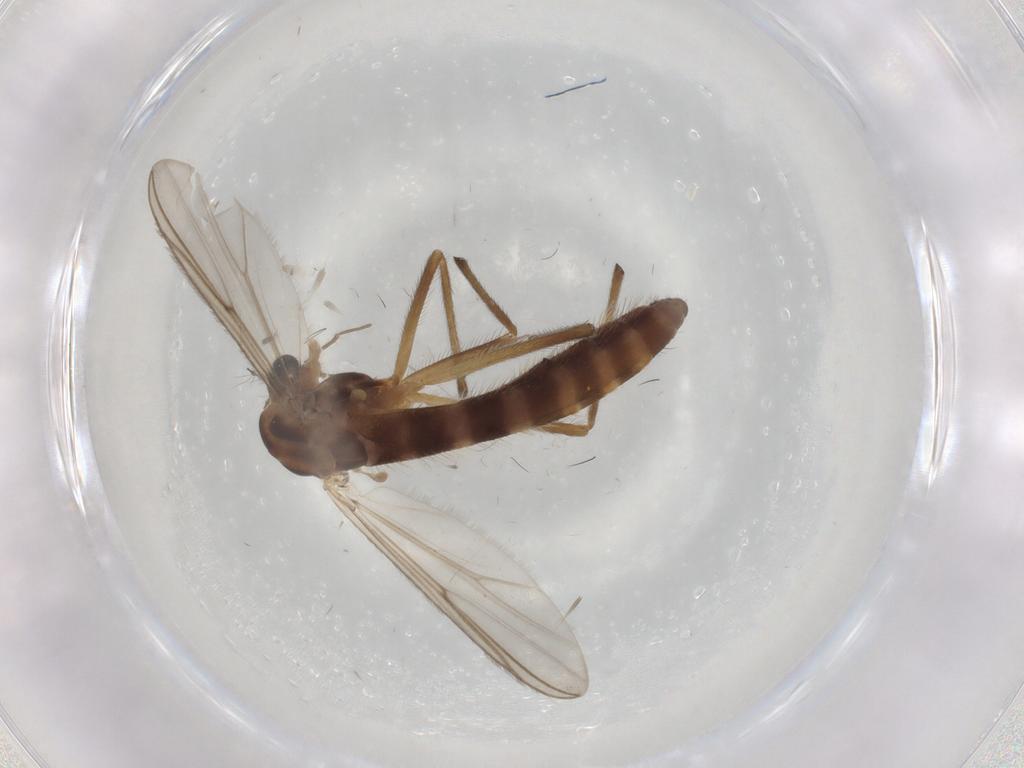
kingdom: Animalia
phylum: Arthropoda
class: Insecta
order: Diptera
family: Chironomidae
